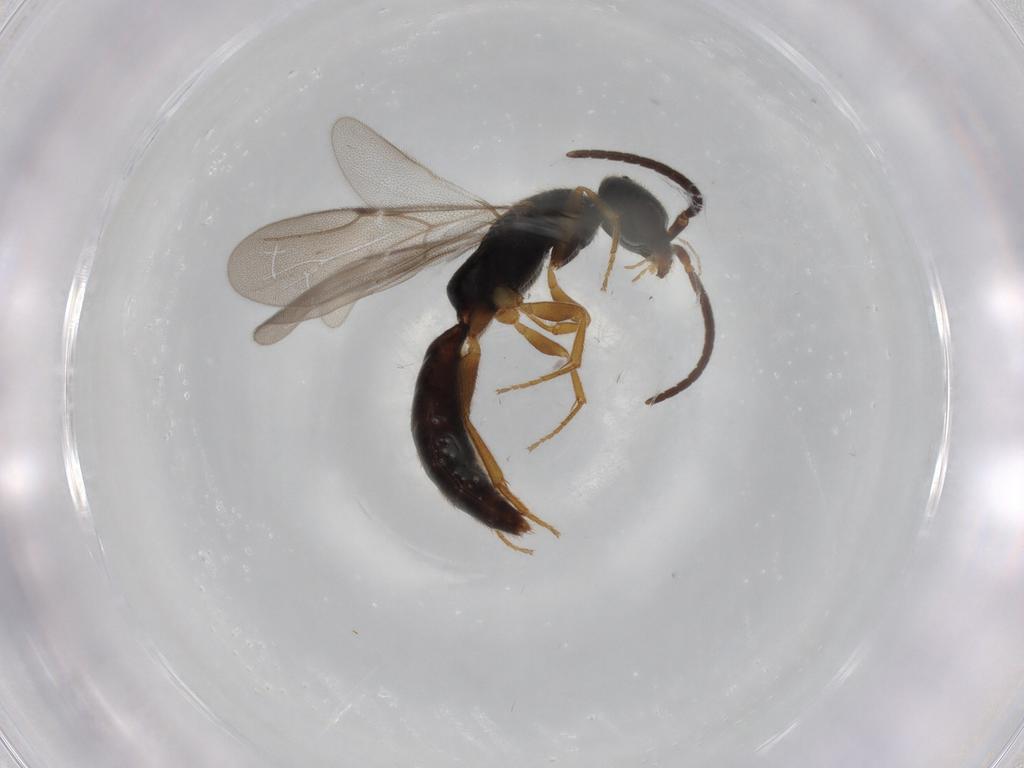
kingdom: Animalia
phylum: Arthropoda
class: Insecta
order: Hymenoptera
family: Bethylidae
